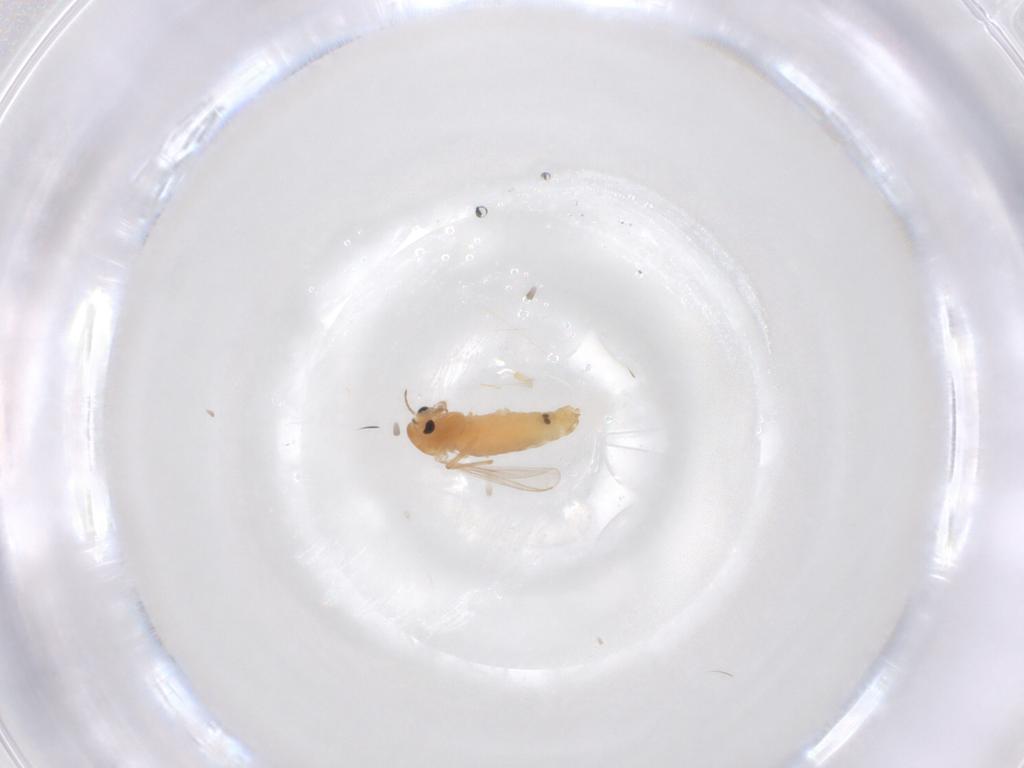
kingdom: Animalia
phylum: Arthropoda
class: Insecta
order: Diptera
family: Chironomidae
